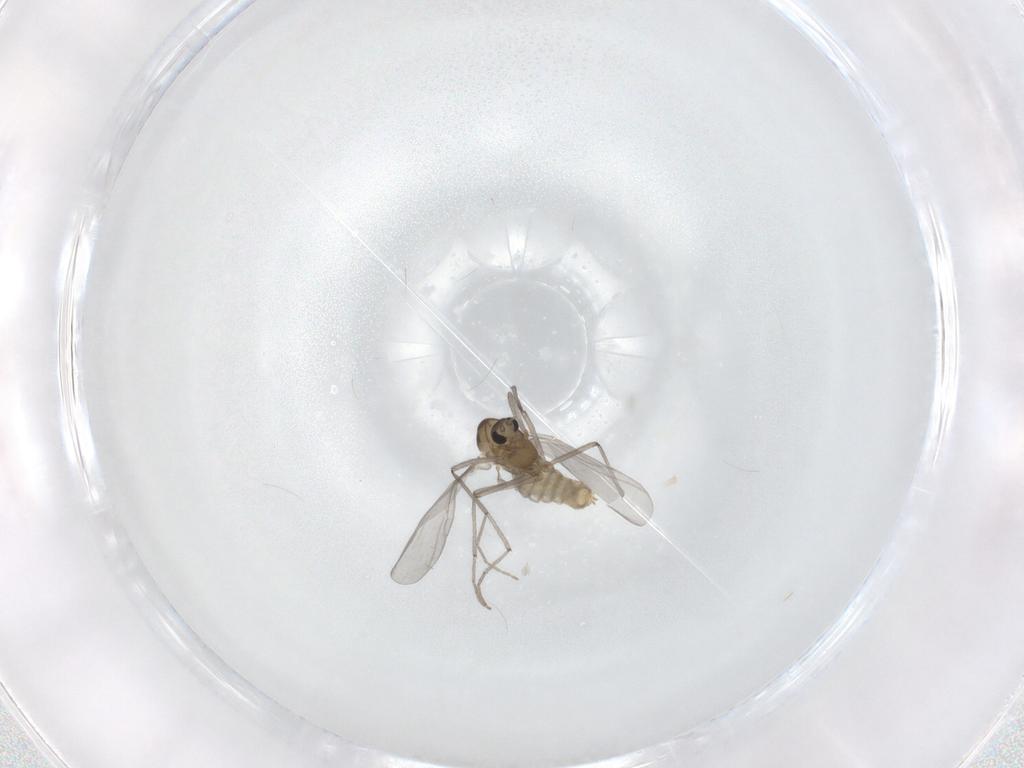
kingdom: Animalia
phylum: Arthropoda
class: Insecta
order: Diptera
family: Chironomidae
